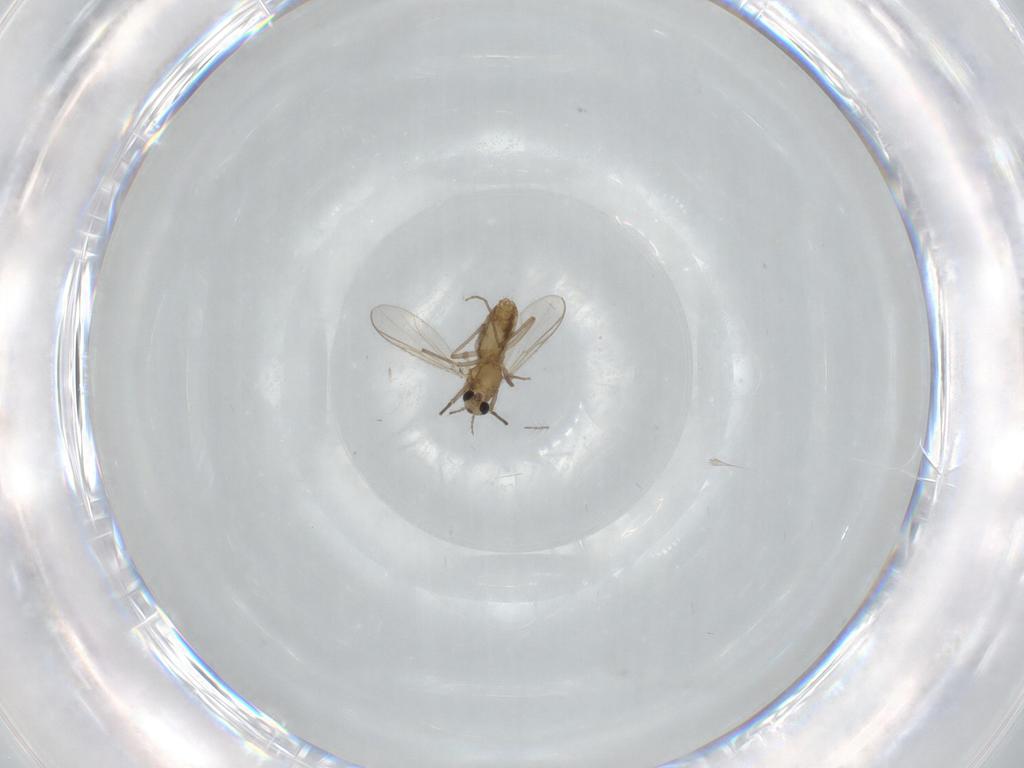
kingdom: Animalia
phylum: Arthropoda
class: Insecta
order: Diptera
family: Chironomidae
